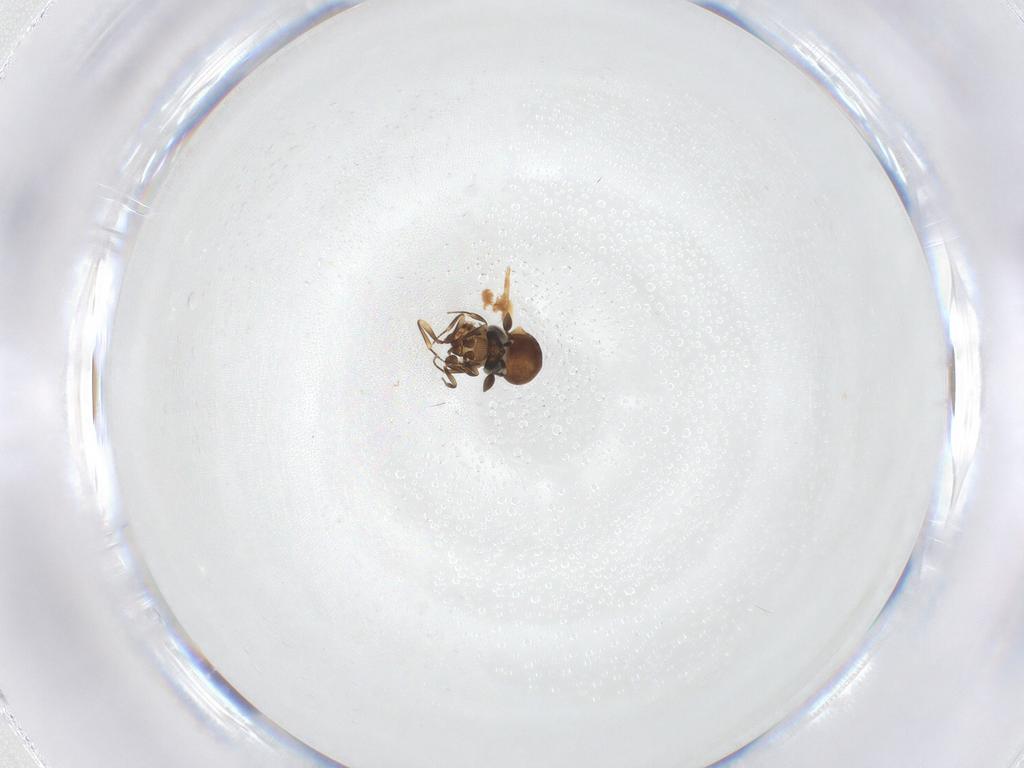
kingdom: Animalia
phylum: Arthropoda
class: Insecta
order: Hymenoptera
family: Scelionidae
